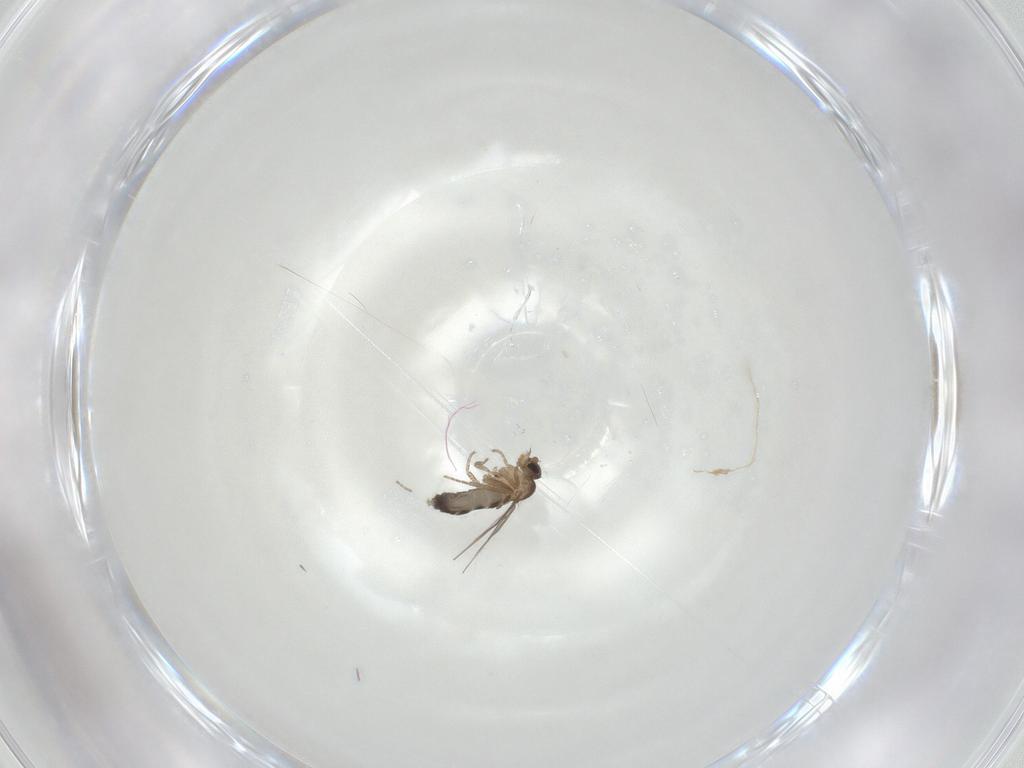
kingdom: Animalia
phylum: Arthropoda
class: Insecta
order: Diptera
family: Phoridae
